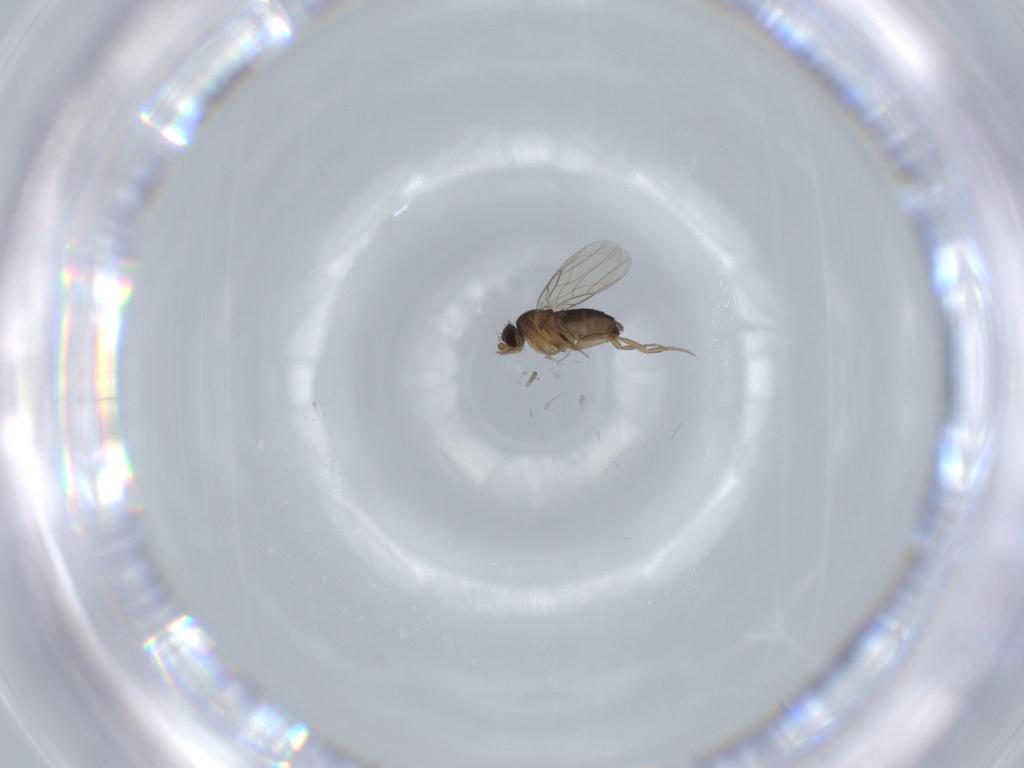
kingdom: Animalia
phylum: Arthropoda
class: Insecta
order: Diptera
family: Phoridae
